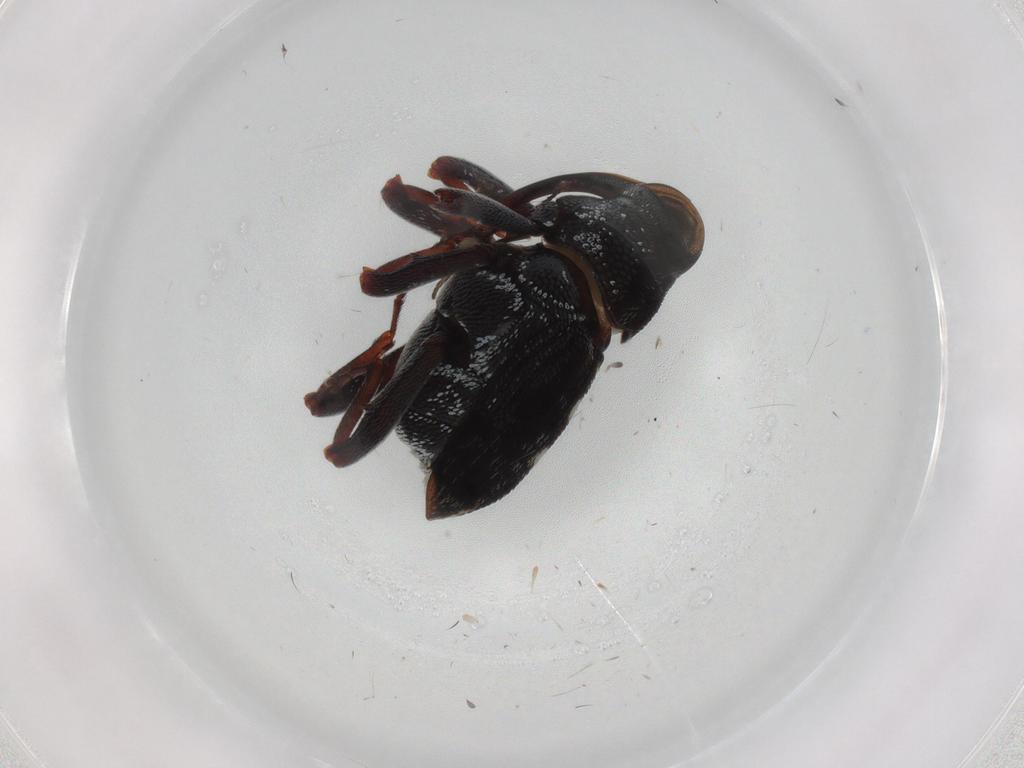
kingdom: Animalia
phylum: Arthropoda
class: Insecta
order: Coleoptera
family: Curculionidae
